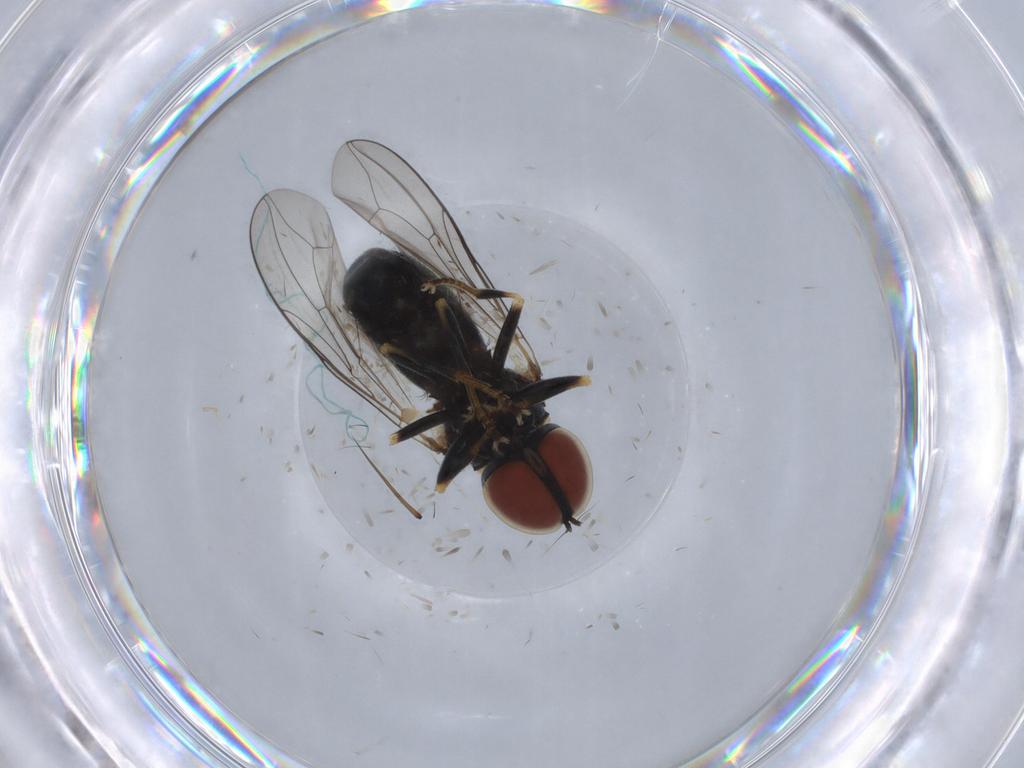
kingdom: Animalia
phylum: Arthropoda
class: Insecta
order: Diptera
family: Pipunculidae
